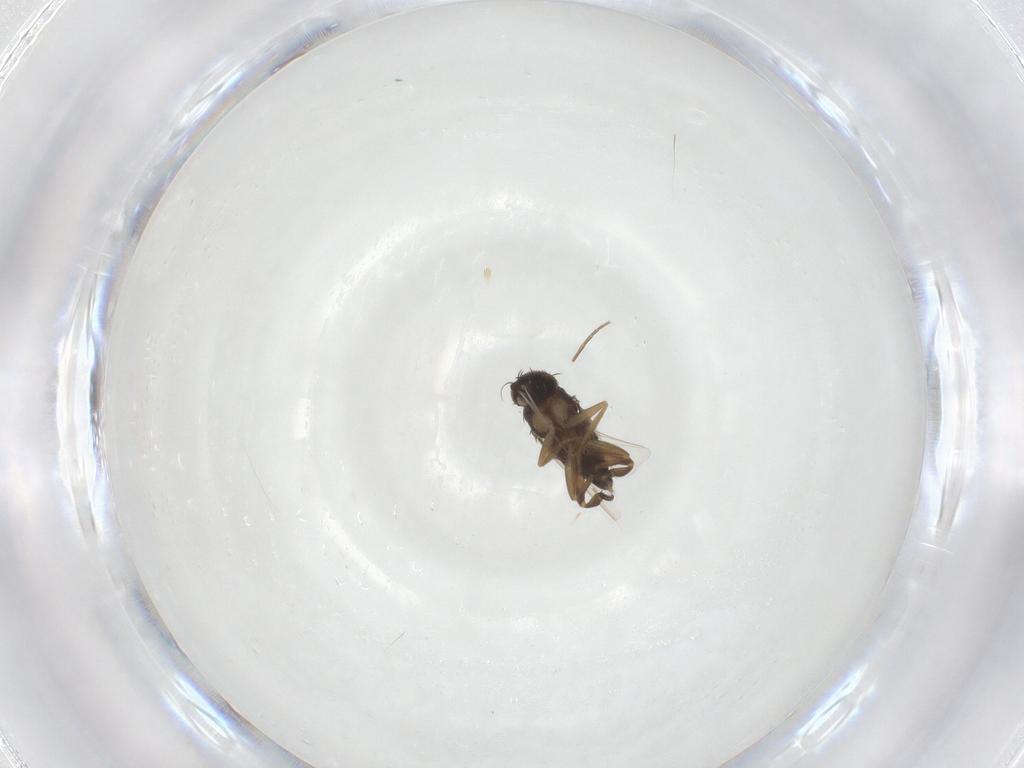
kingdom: Animalia
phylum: Arthropoda
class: Insecta
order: Diptera
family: Phoridae
